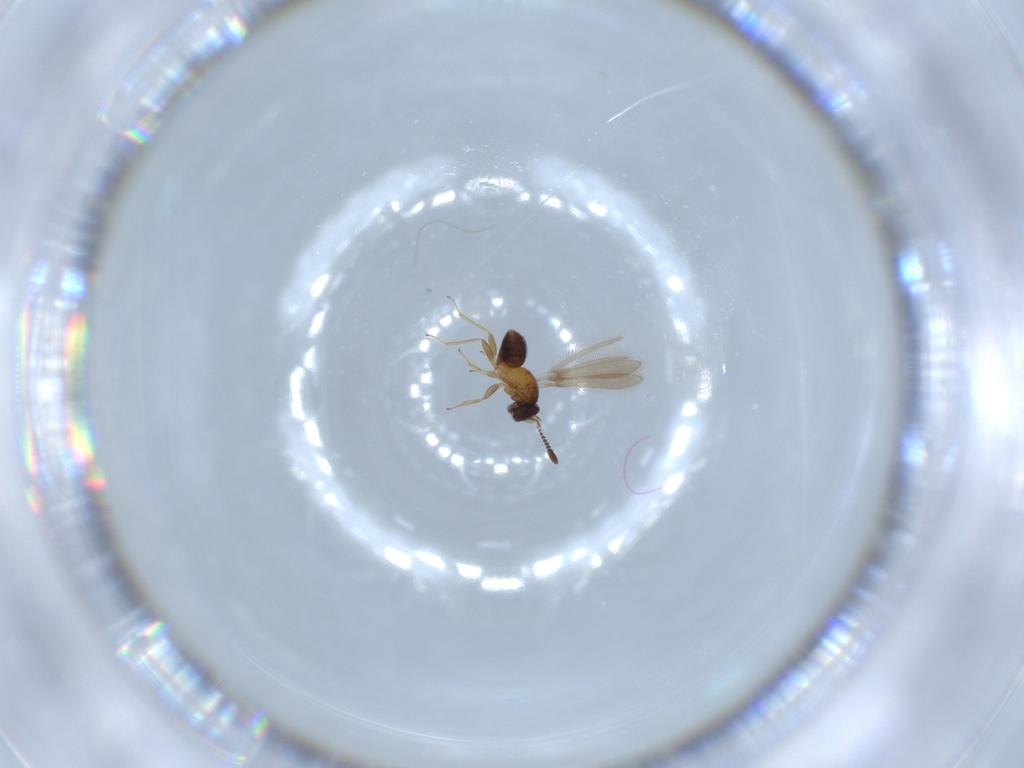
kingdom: Animalia
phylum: Arthropoda
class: Insecta
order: Hymenoptera
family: Mymaridae
